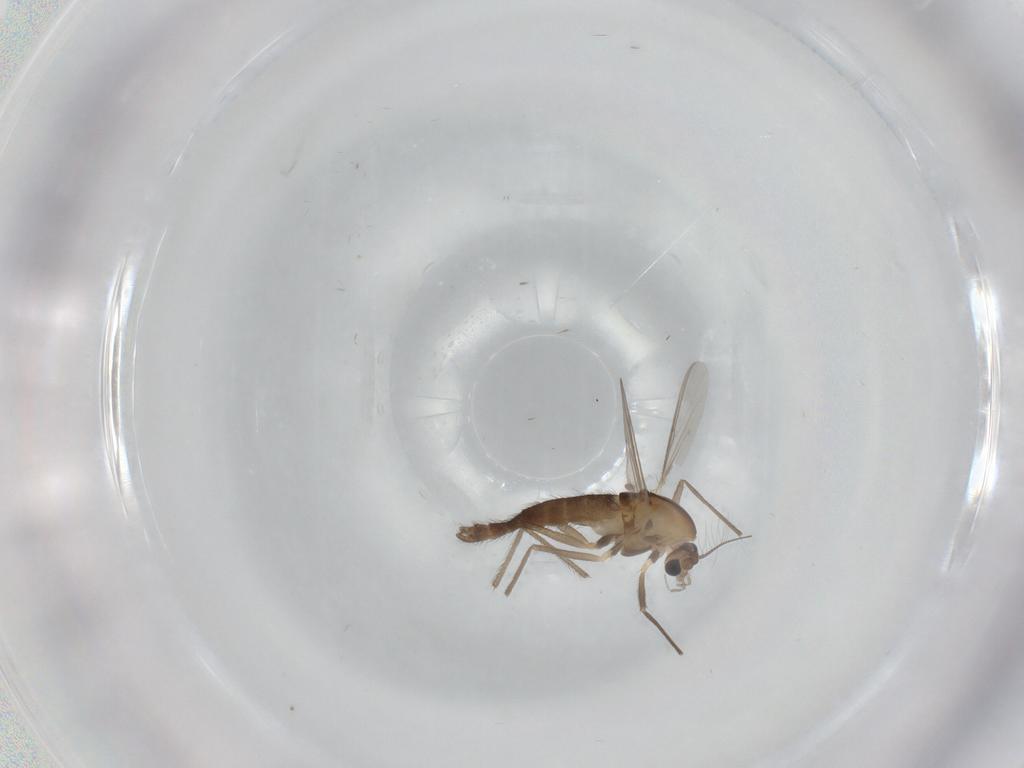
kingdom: Animalia
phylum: Arthropoda
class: Insecta
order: Diptera
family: Chironomidae
